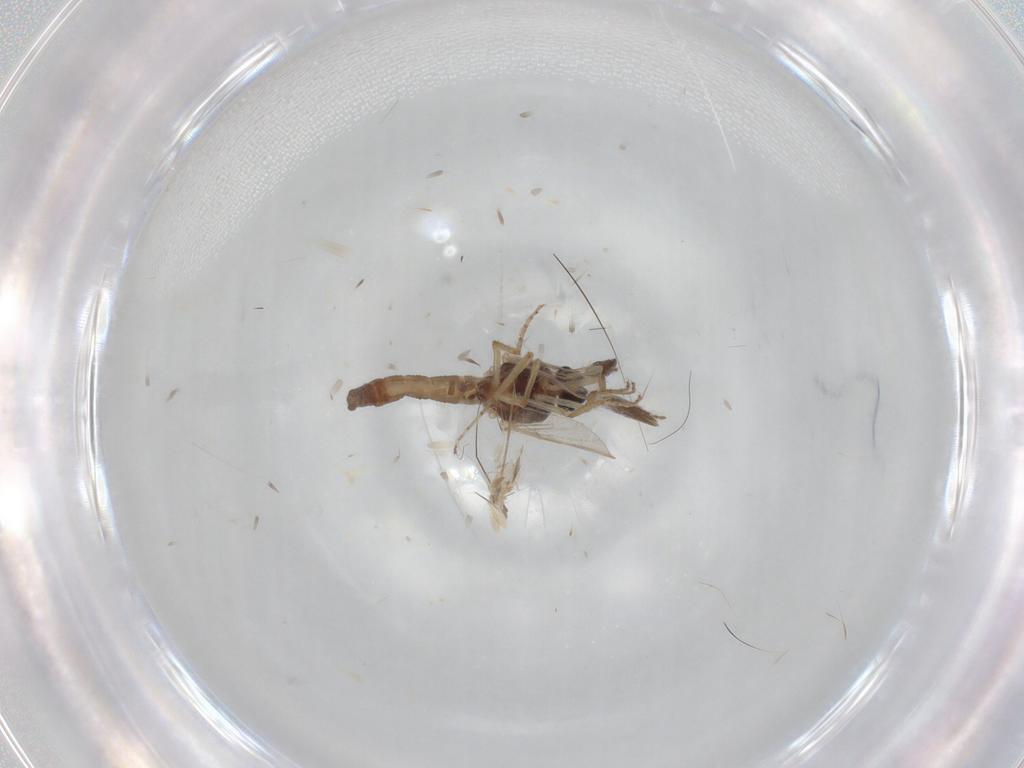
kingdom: Animalia
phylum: Arthropoda
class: Insecta
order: Diptera
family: Ceratopogonidae
